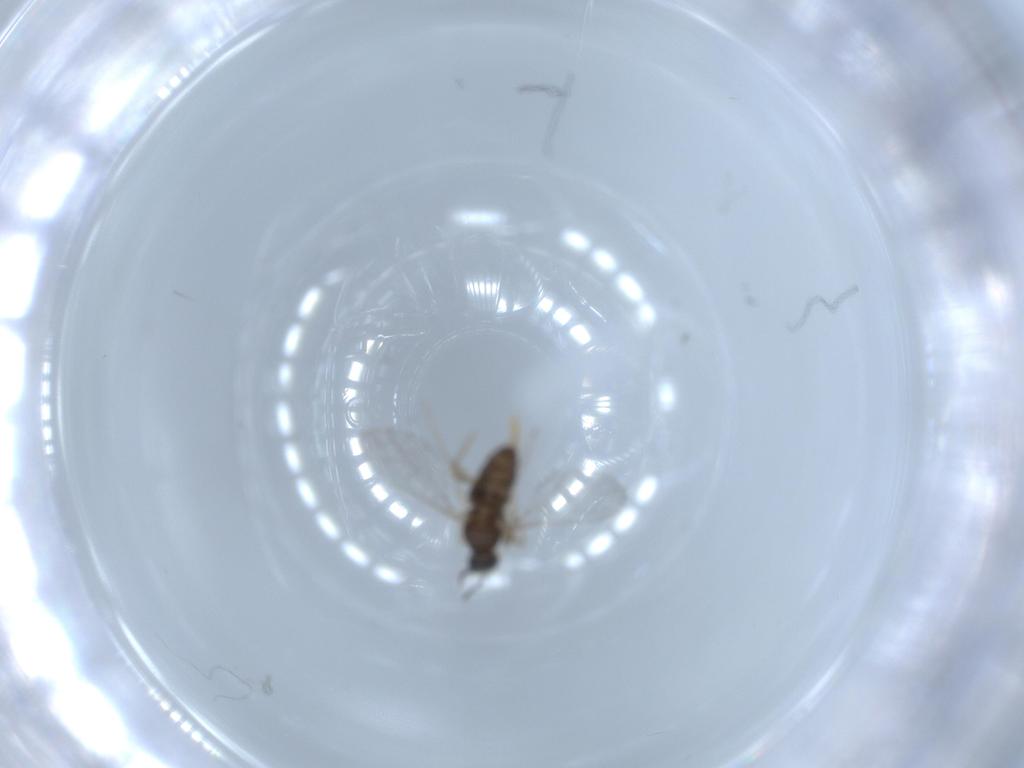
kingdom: Animalia
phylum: Arthropoda
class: Insecta
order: Diptera
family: Cecidomyiidae
